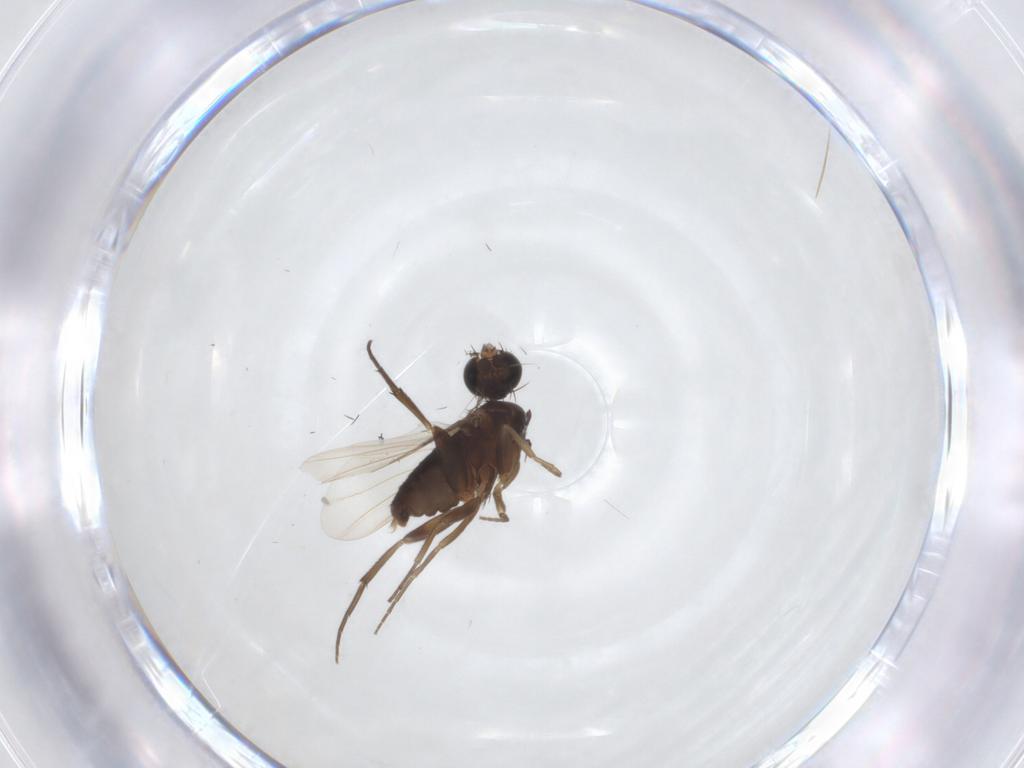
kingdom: Animalia
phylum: Arthropoda
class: Insecta
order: Diptera
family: Phoridae
